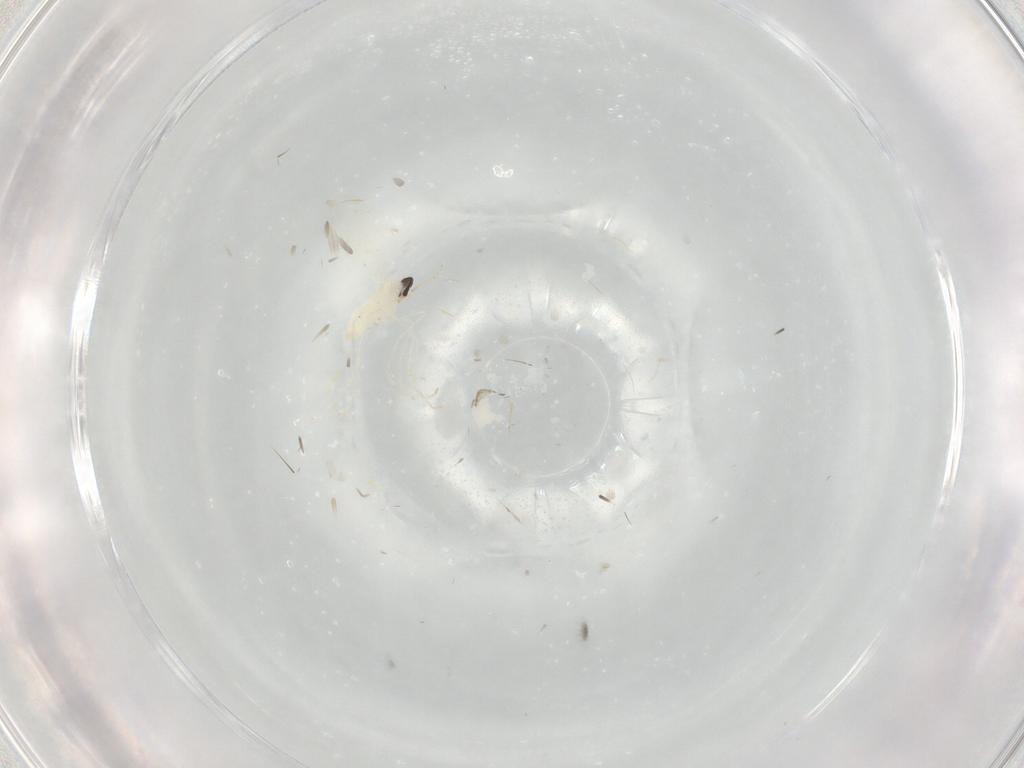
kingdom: Animalia
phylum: Arthropoda
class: Insecta
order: Diptera
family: Cecidomyiidae
